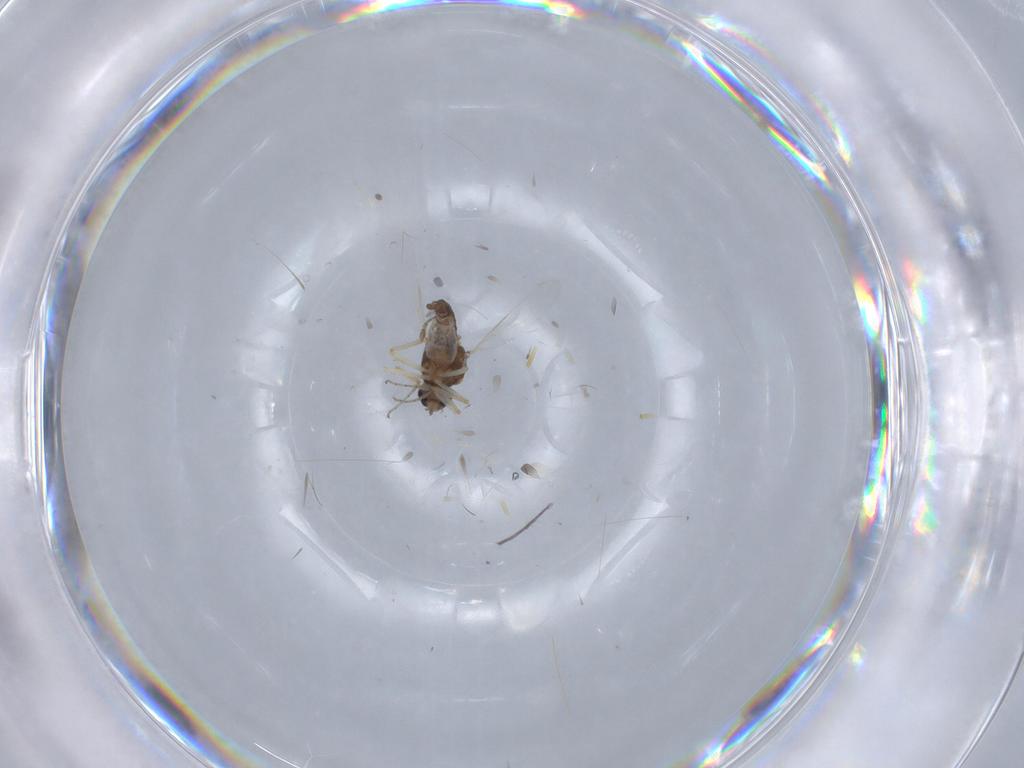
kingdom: Animalia
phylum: Arthropoda
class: Insecta
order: Diptera
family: Ceratopogonidae
